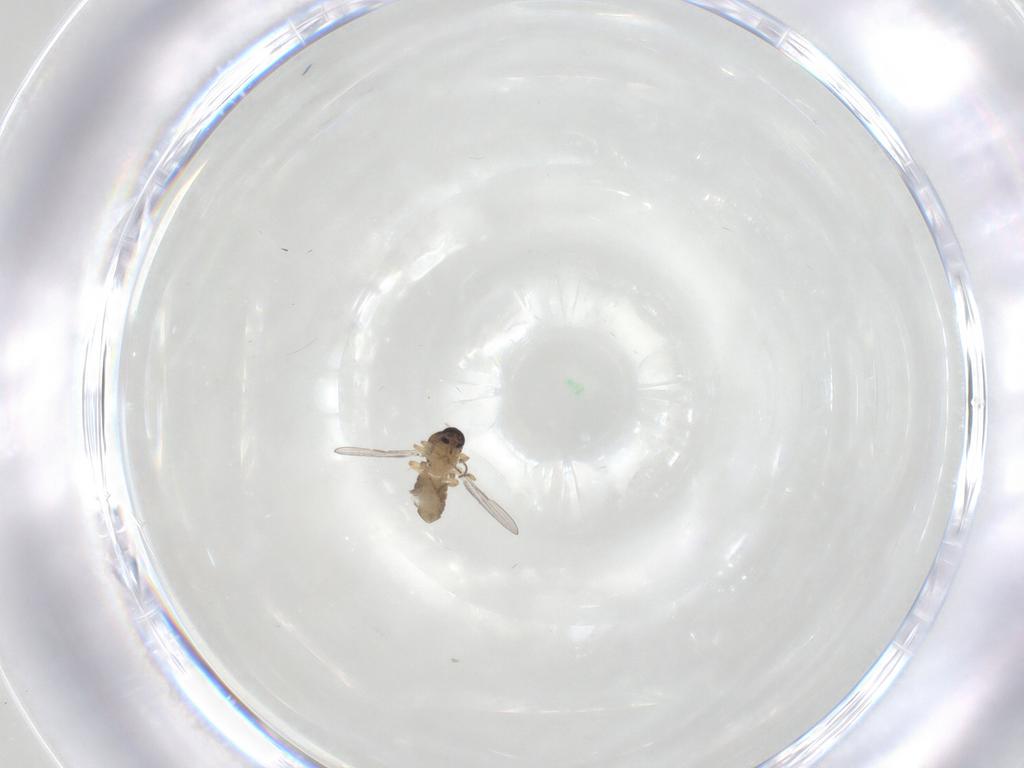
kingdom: Animalia
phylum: Arthropoda
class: Insecta
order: Diptera
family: Ceratopogonidae
